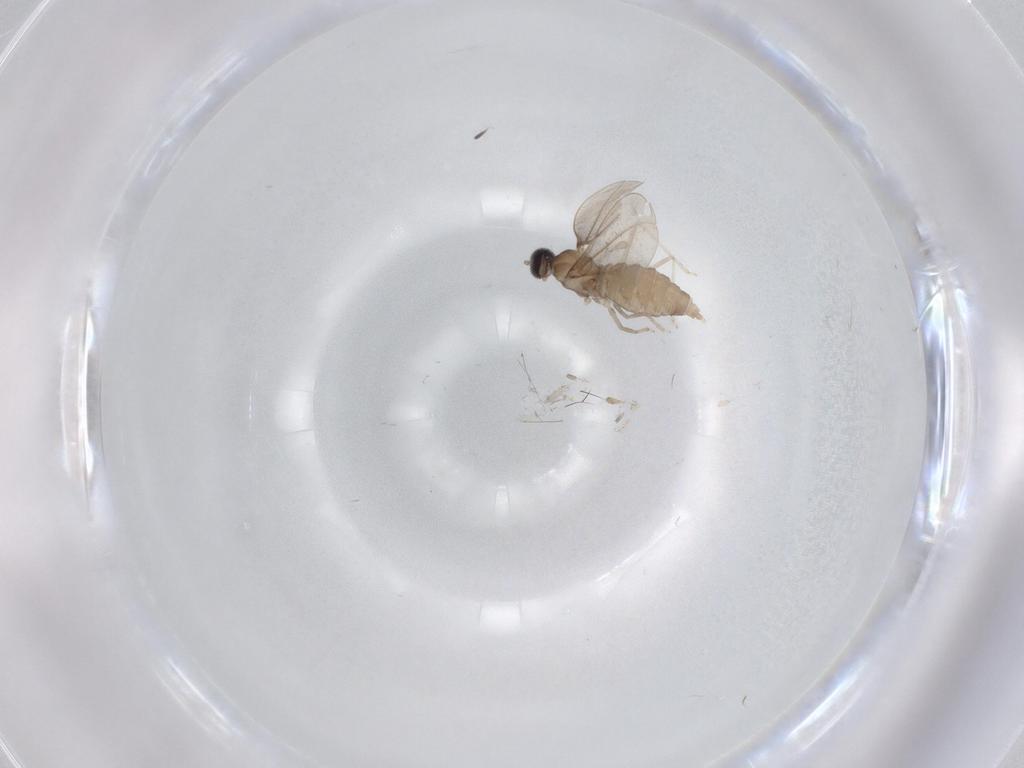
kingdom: Animalia
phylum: Arthropoda
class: Insecta
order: Diptera
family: Cecidomyiidae
